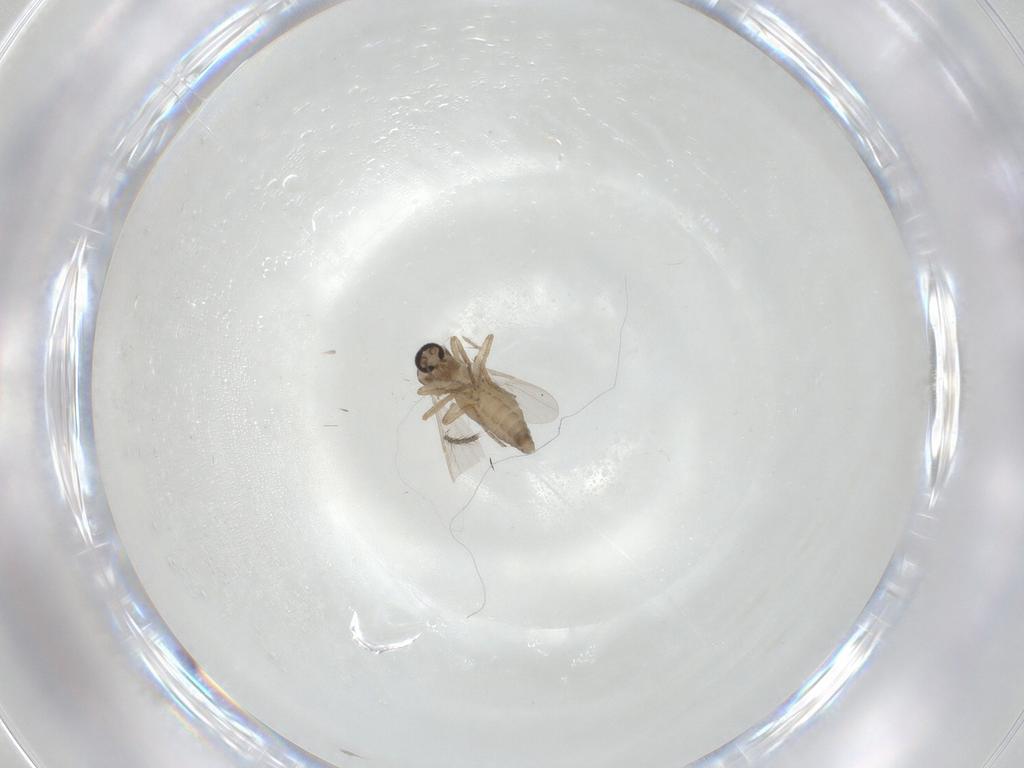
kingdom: Animalia
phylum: Arthropoda
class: Insecta
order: Diptera
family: Ceratopogonidae
